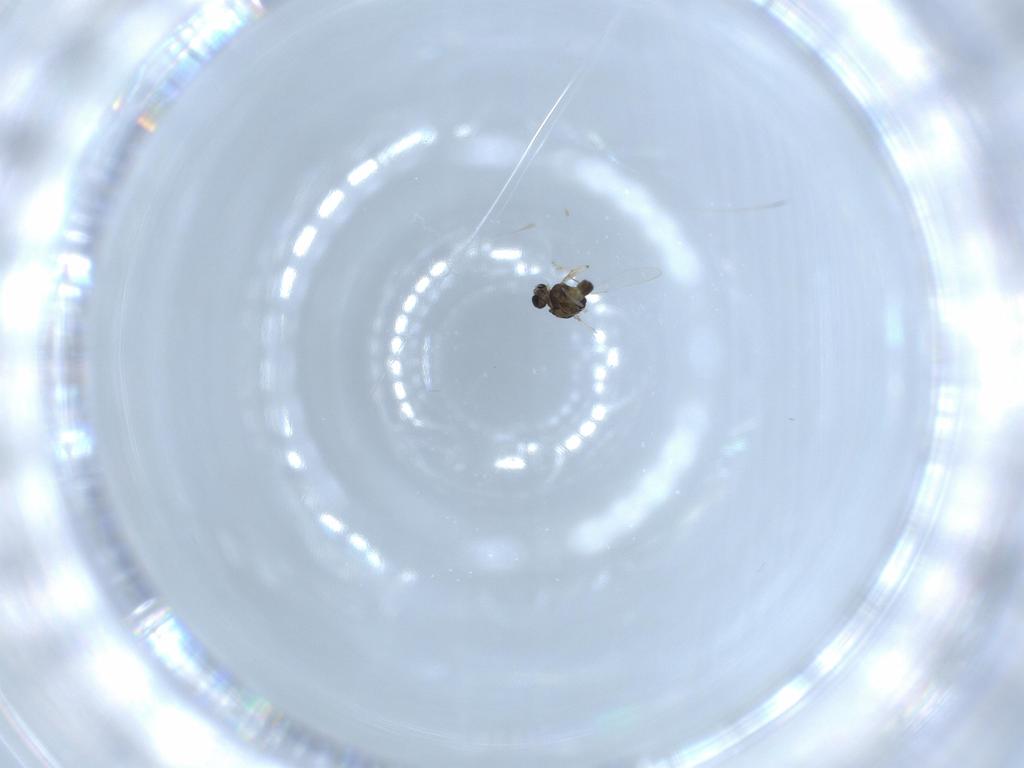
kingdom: Animalia
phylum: Arthropoda
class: Insecta
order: Diptera
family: Chironomidae
